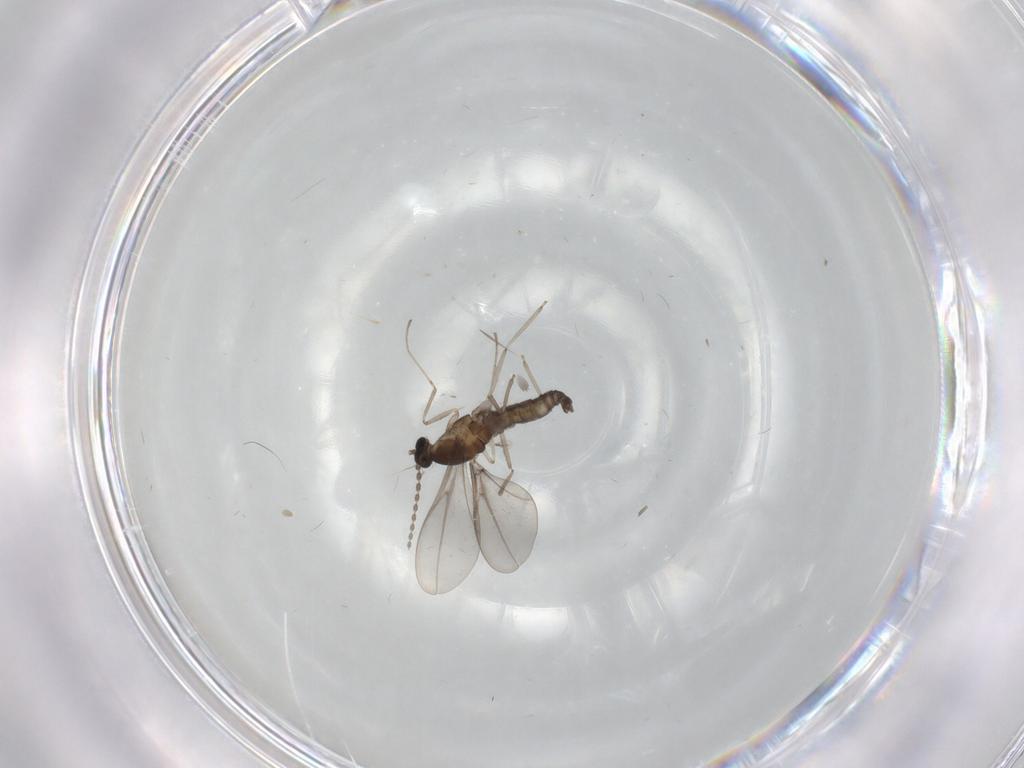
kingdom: Animalia
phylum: Arthropoda
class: Insecta
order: Diptera
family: Cecidomyiidae
